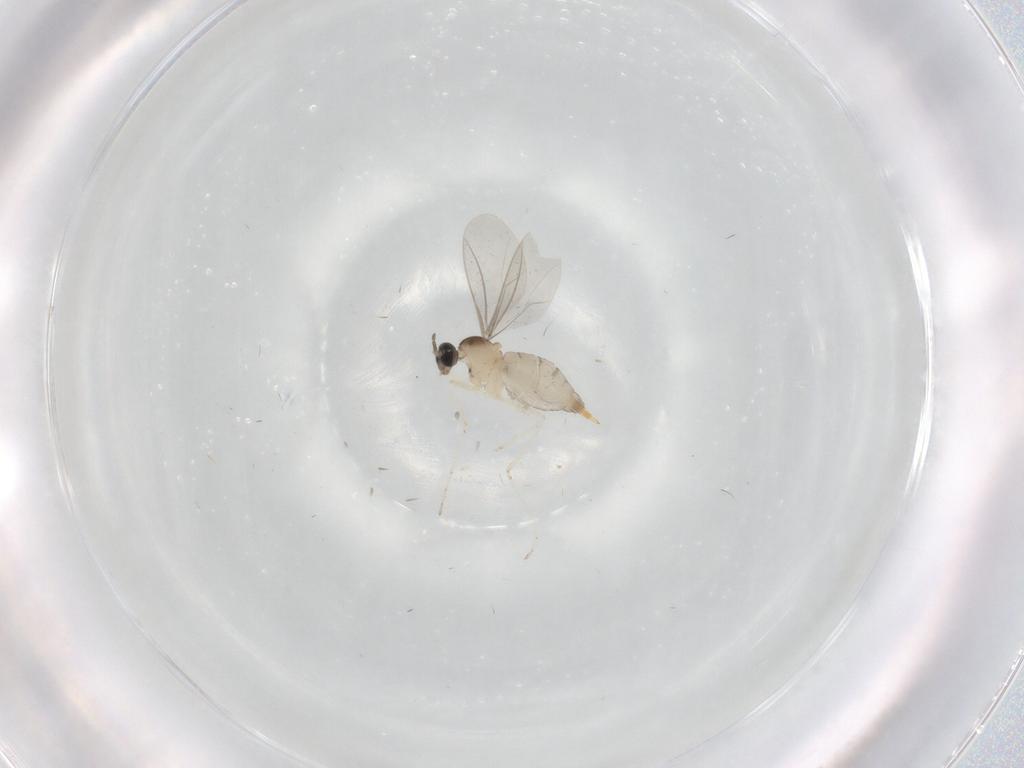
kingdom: Animalia
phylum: Arthropoda
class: Insecta
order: Diptera
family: Cecidomyiidae
